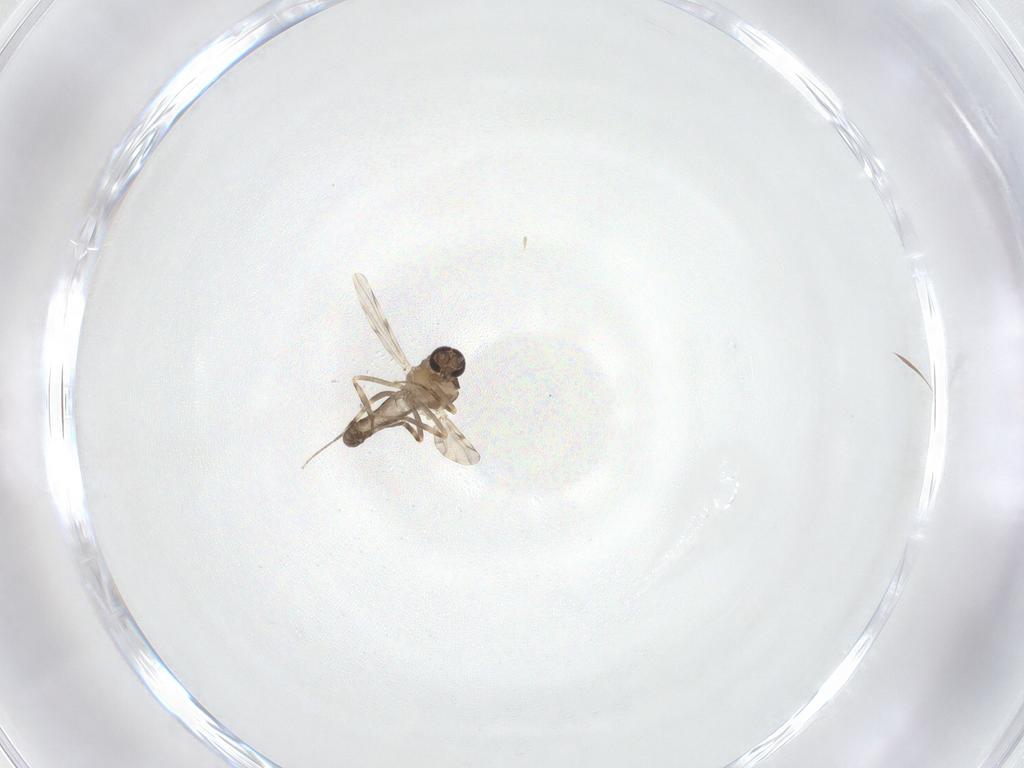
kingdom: Animalia
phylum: Arthropoda
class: Insecta
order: Diptera
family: Ceratopogonidae
